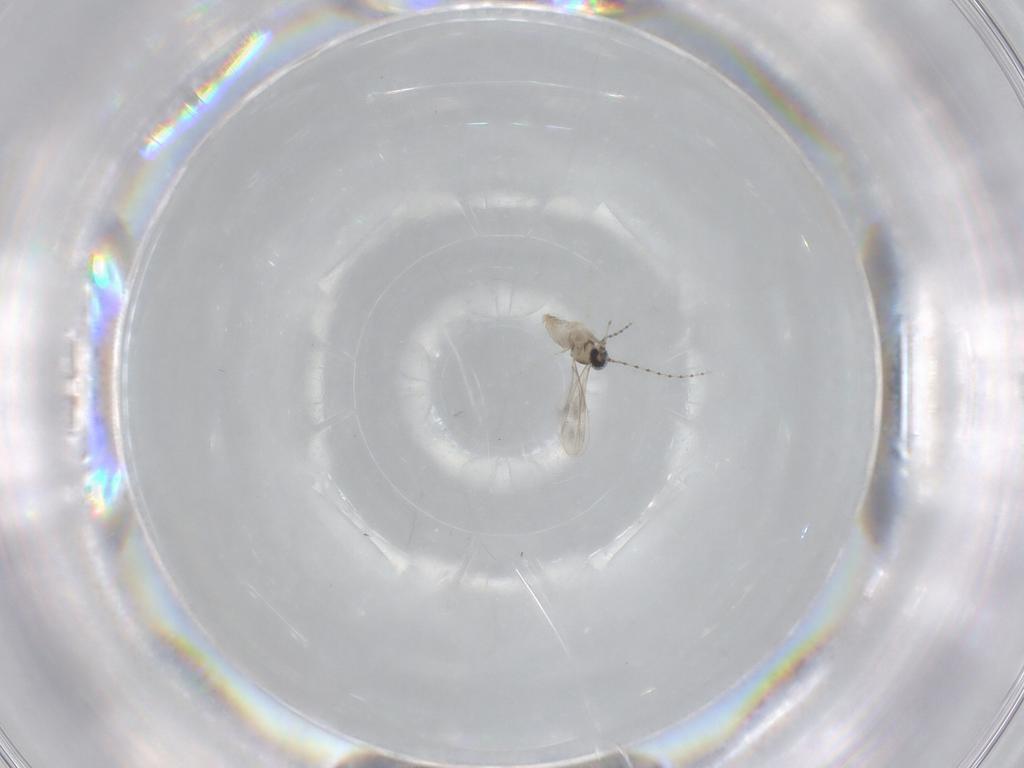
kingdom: Animalia
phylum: Arthropoda
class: Insecta
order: Diptera
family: Cecidomyiidae
